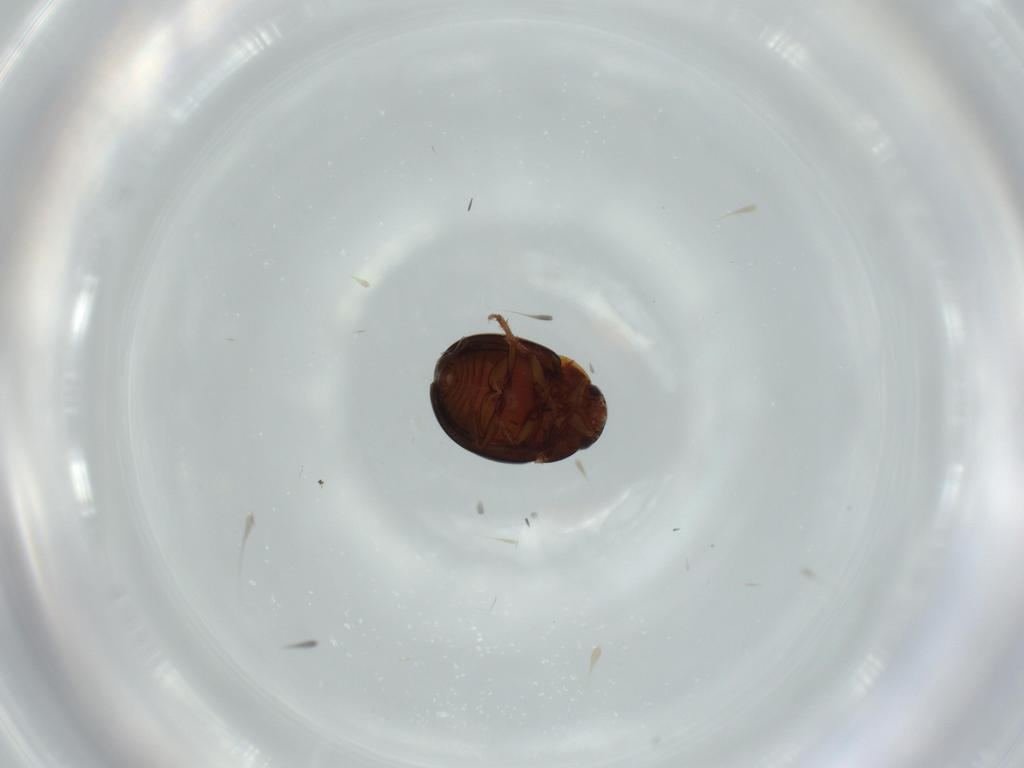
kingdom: Animalia
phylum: Arthropoda
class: Insecta
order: Coleoptera
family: Leiodidae
